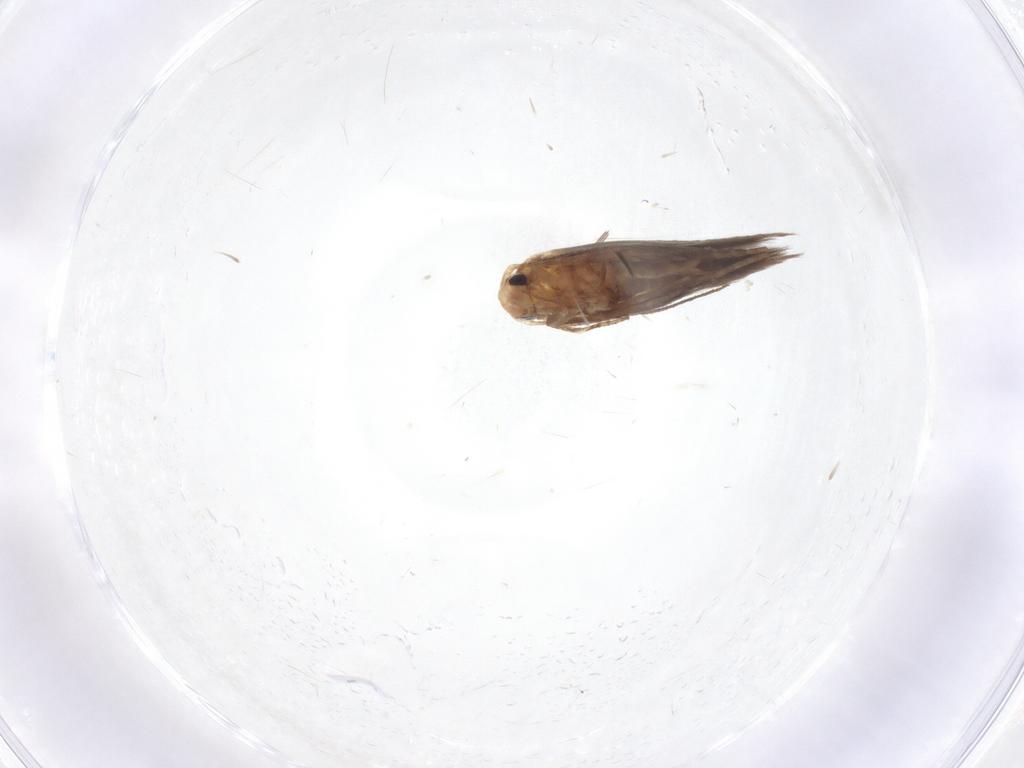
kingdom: Animalia
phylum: Arthropoda
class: Insecta
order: Lepidoptera
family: Gracillariidae
